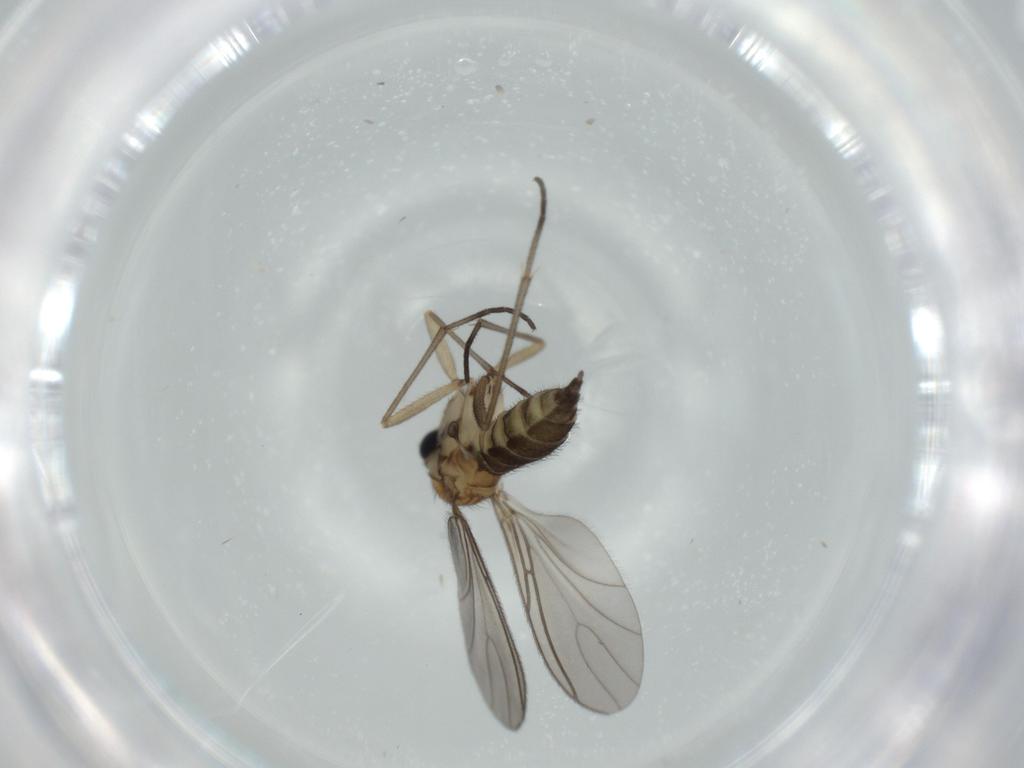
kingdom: Animalia
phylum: Arthropoda
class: Insecta
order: Diptera
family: Sciaridae
